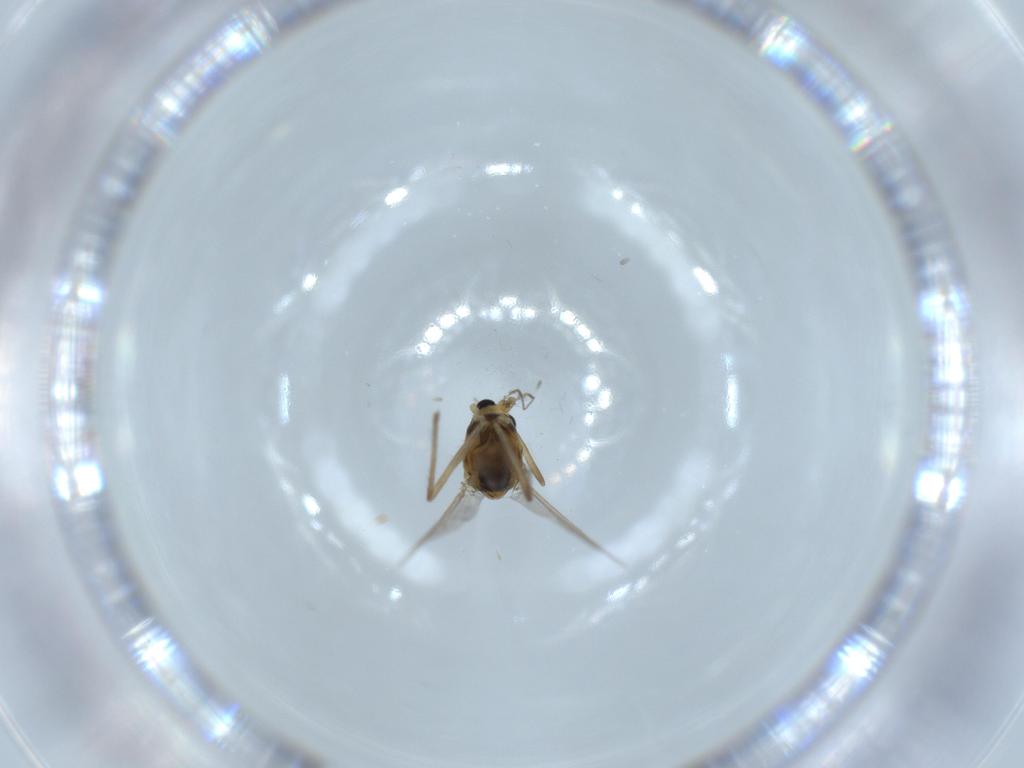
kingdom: Animalia
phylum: Arthropoda
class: Insecta
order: Diptera
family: Chironomidae
